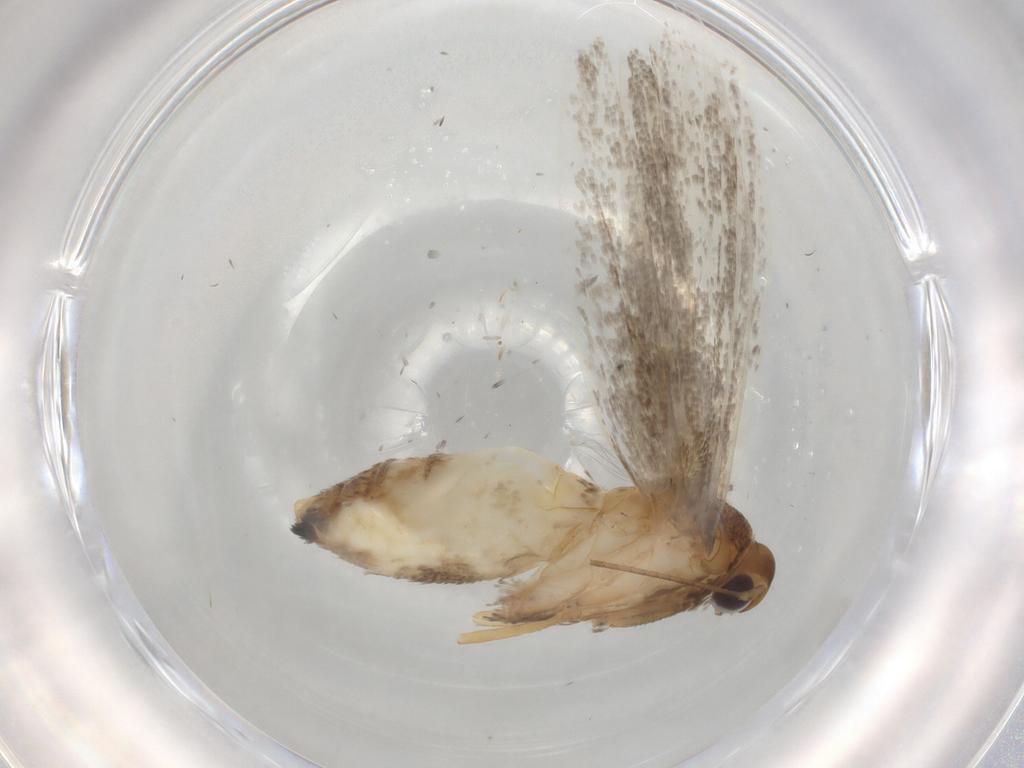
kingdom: Animalia
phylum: Arthropoda
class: Insecta
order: Lepidoptera
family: Epermeniidae
